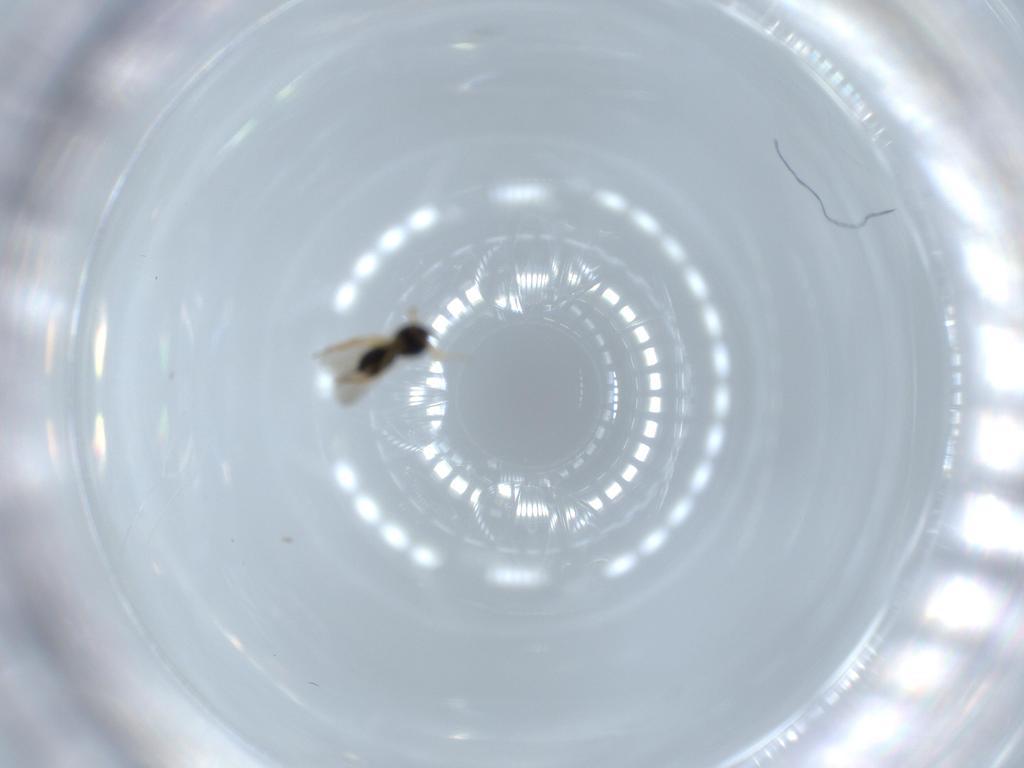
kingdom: Animalia
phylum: Arthropoda
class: Insecta
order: Hymenoptera
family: Scelionidae
